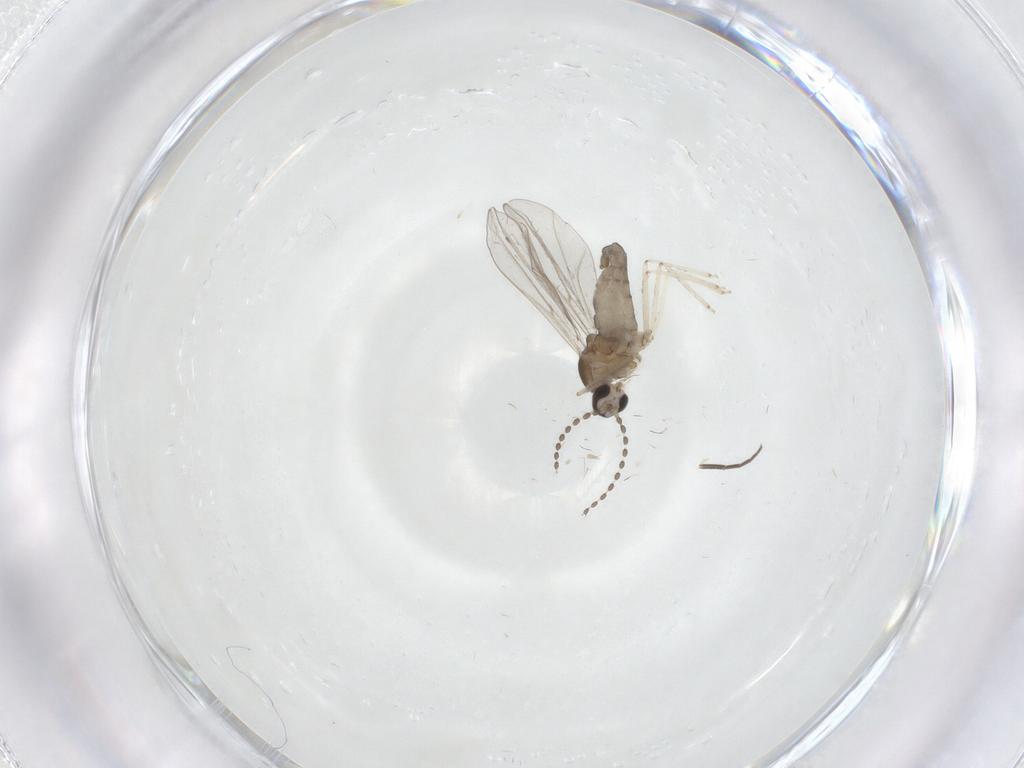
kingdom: Animalia
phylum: Arthropoda
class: Insecta
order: Diptera
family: Cecidomyiidae
